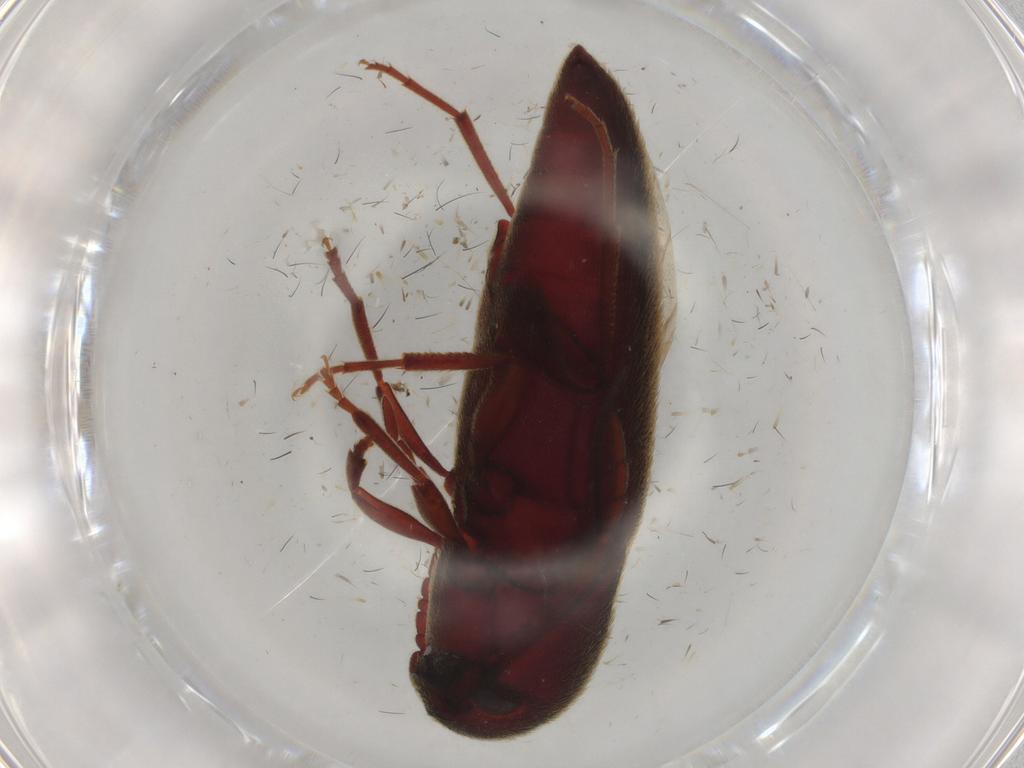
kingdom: Animalia
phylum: Arthropoda
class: Insecta
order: Coleoptera
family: Eucnemidae
